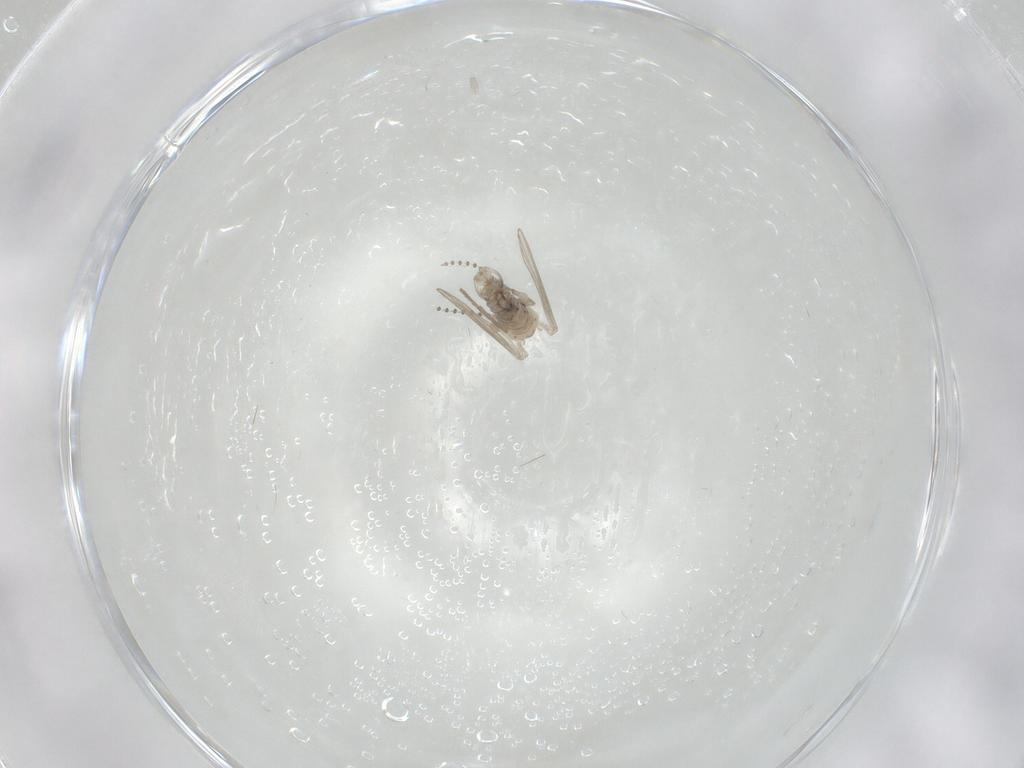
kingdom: Animalia
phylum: Arthropoda
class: Insecta
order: Diptera
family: Psychodidae
